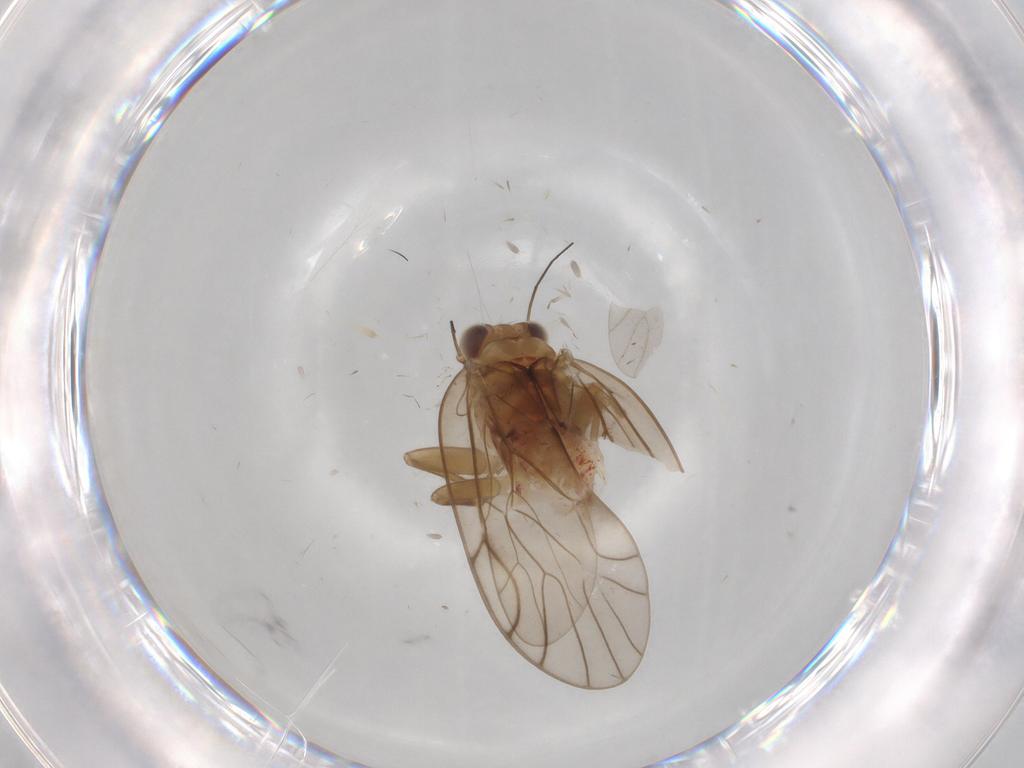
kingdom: Animalia
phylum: Arthropoda
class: Insecta
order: Psocodea
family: Philotarsidae
